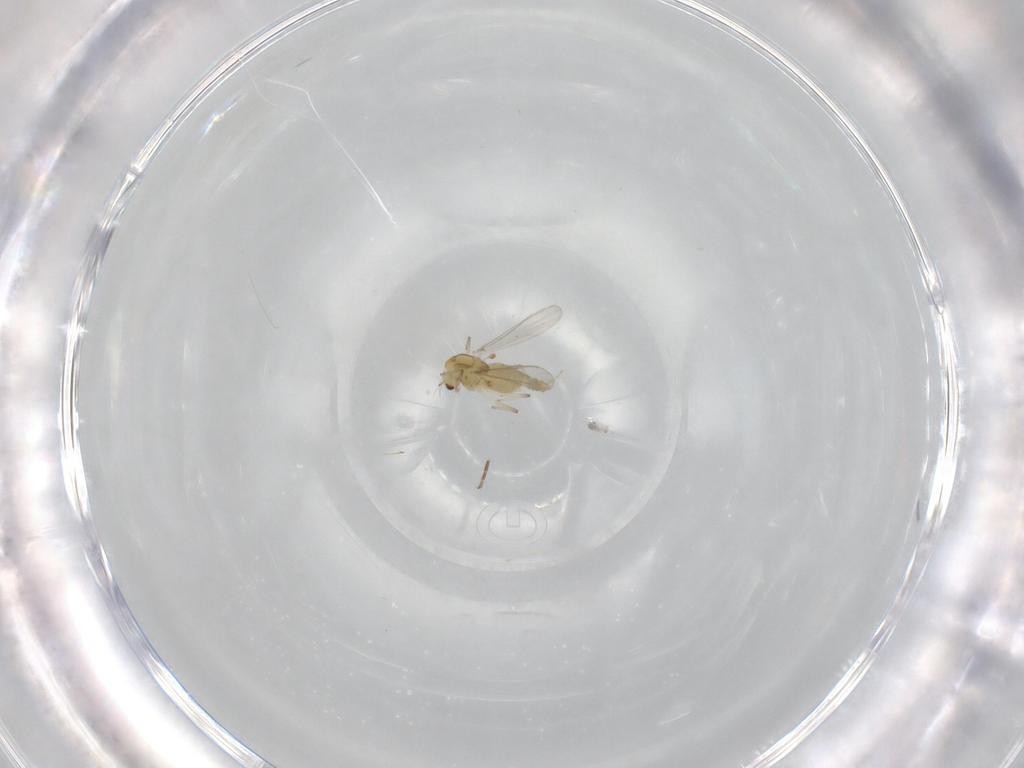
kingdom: Animalia
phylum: Arthropoda
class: Insecta
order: Diptera
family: Chironomidae
